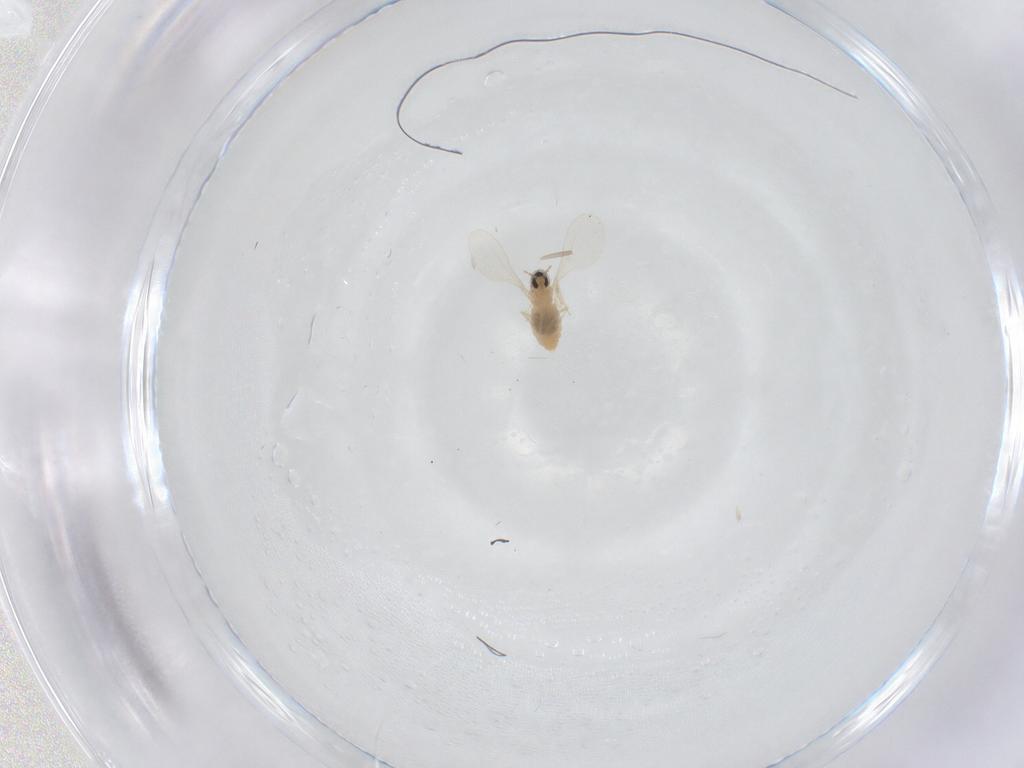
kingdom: Animalia
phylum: Arthropoda
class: Insecta
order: Diptera
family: Cecidomyiidae
